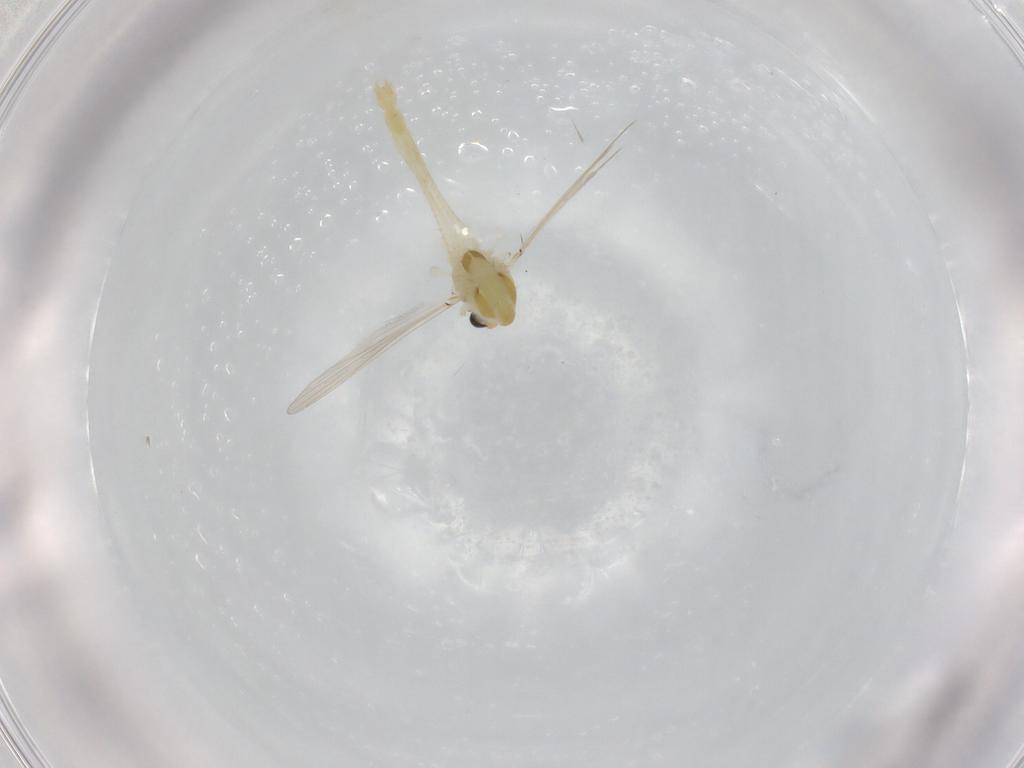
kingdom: Animalia
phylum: Arthropoda
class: Insecta
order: Diptera
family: Chironomidae
